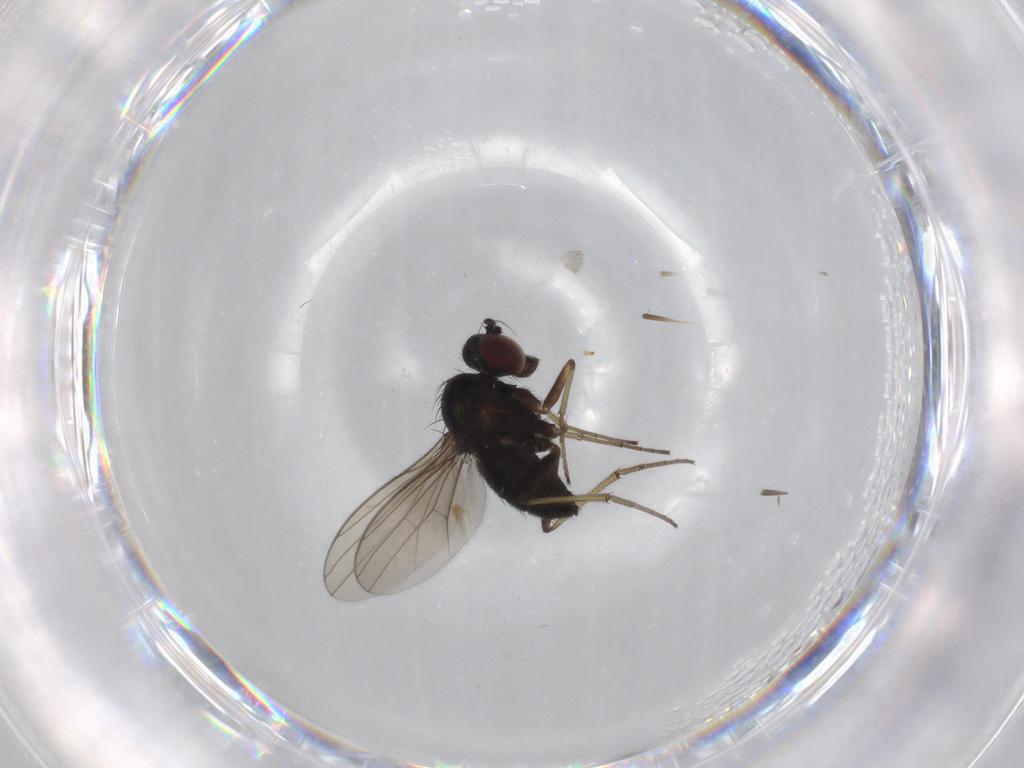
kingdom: Animalia
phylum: Arthropoda
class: Insecta
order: Diptera
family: Dolichopodidae
